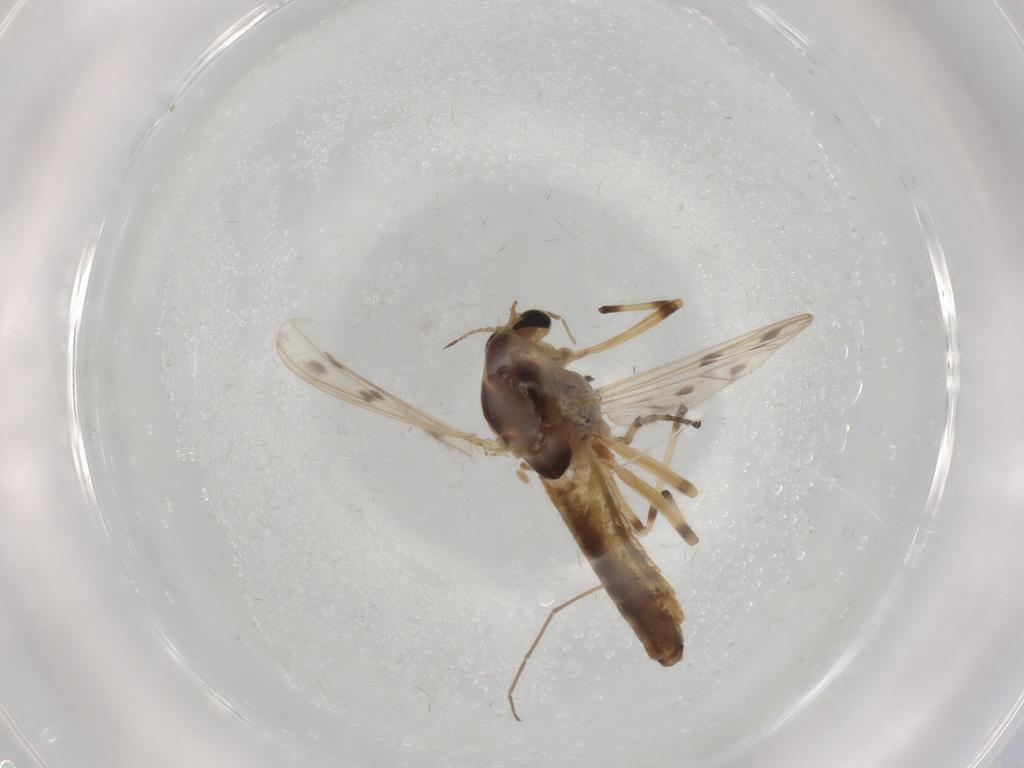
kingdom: Animalia
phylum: Arthropoda
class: Insecta
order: Diptera
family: Chironomidae
